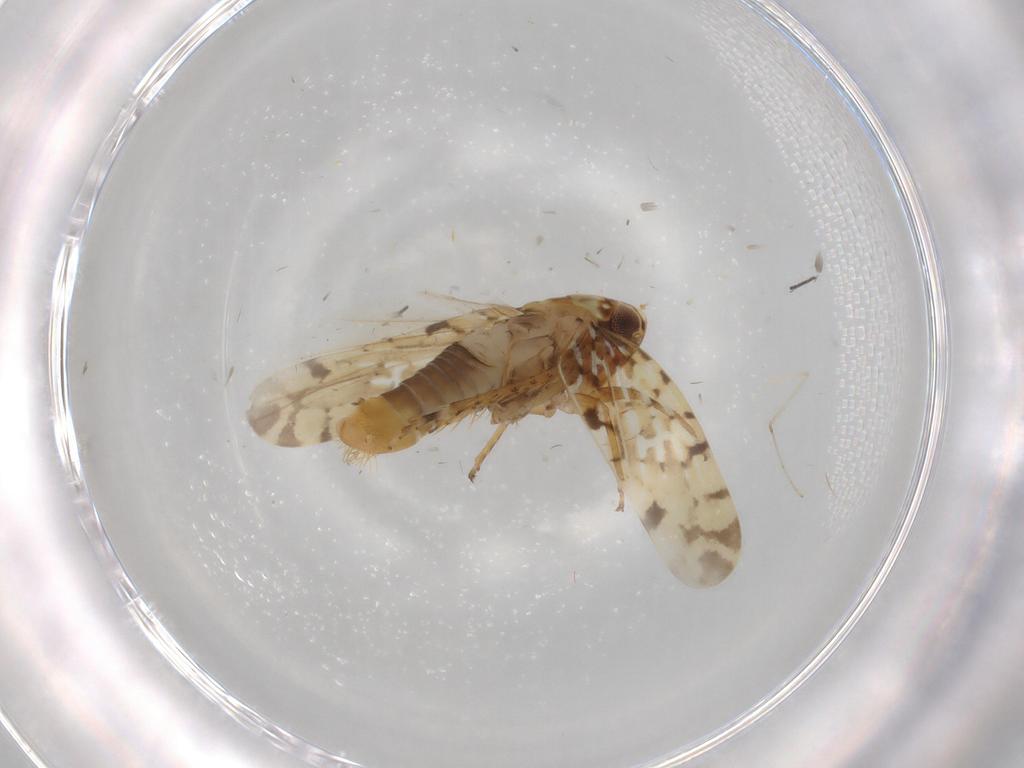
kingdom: Animalia
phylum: Arthropoda
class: Insecta
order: Hemiptera
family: Cicadellidae
